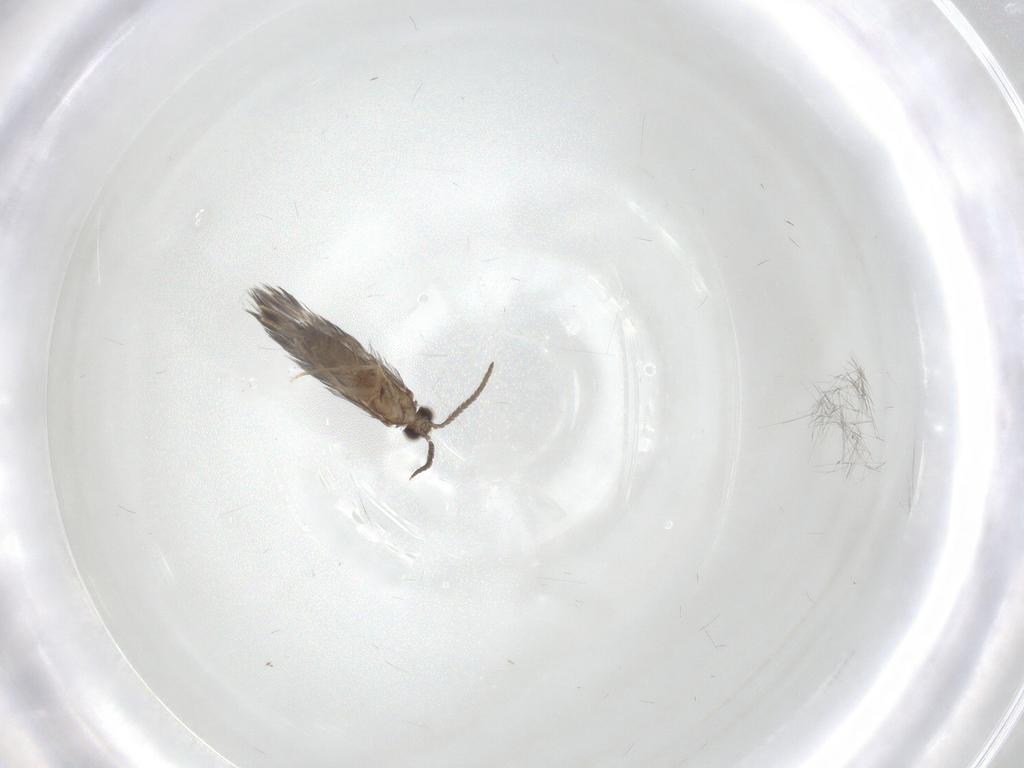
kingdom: Animalia
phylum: Arthropoda
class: Insecta
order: Trichoptera
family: Hydroptilidae
